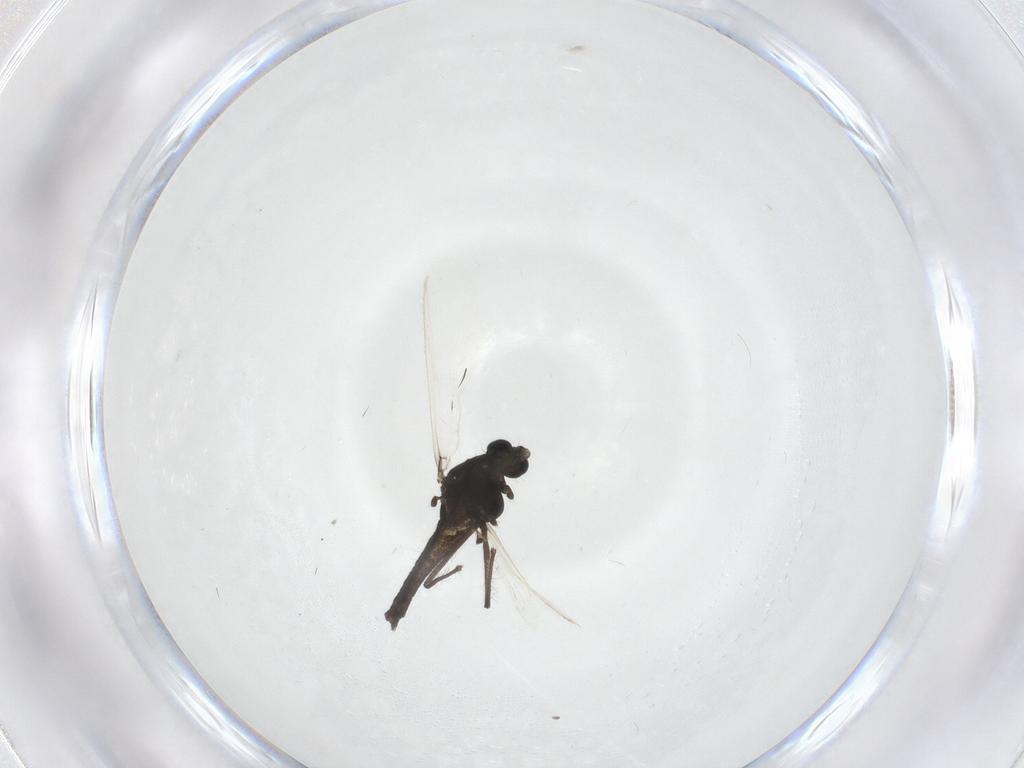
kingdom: Animalia
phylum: Arthropoda
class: Insecta
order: Diptera
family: Chironomidae
